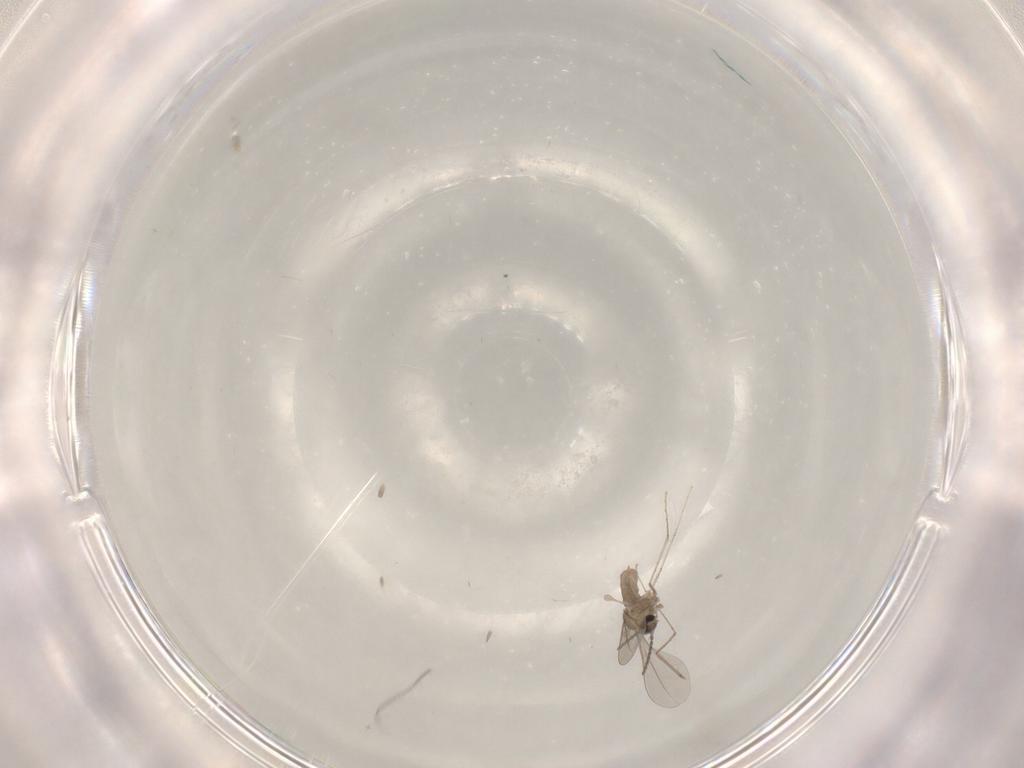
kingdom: Animalia
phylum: Arthropoda
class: Insecta
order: Diptera
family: Cecidomyiidae
